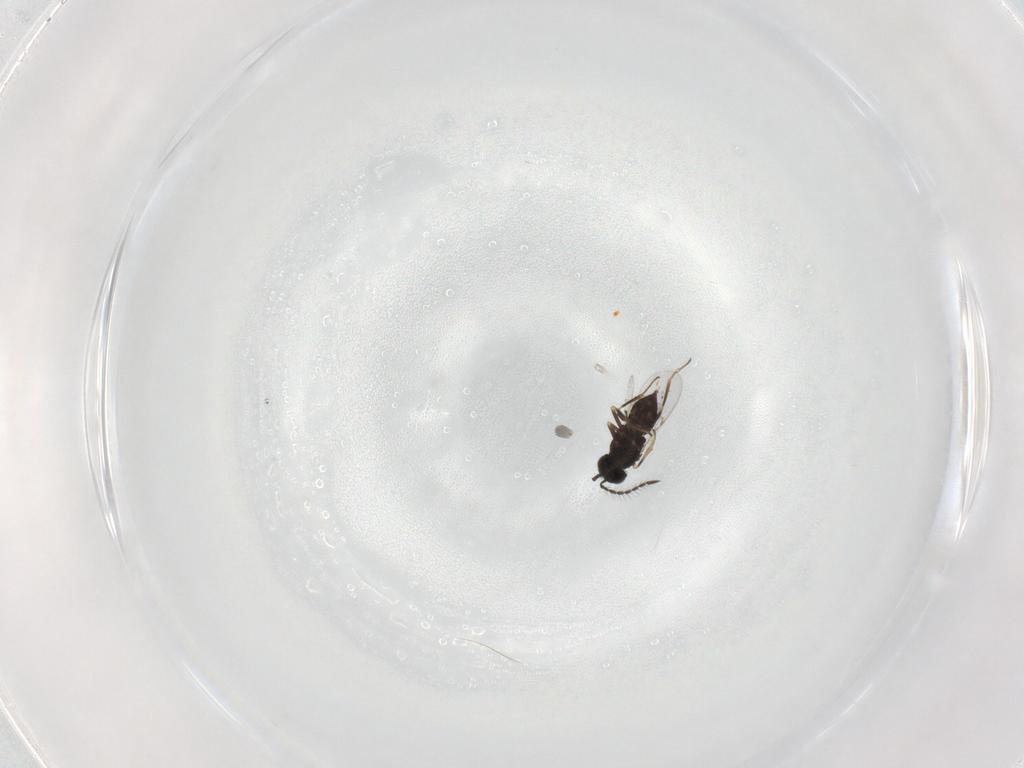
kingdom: Animalia
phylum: Arthropoda
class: Insecta
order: Hymenoptera
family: Encyrtidae
